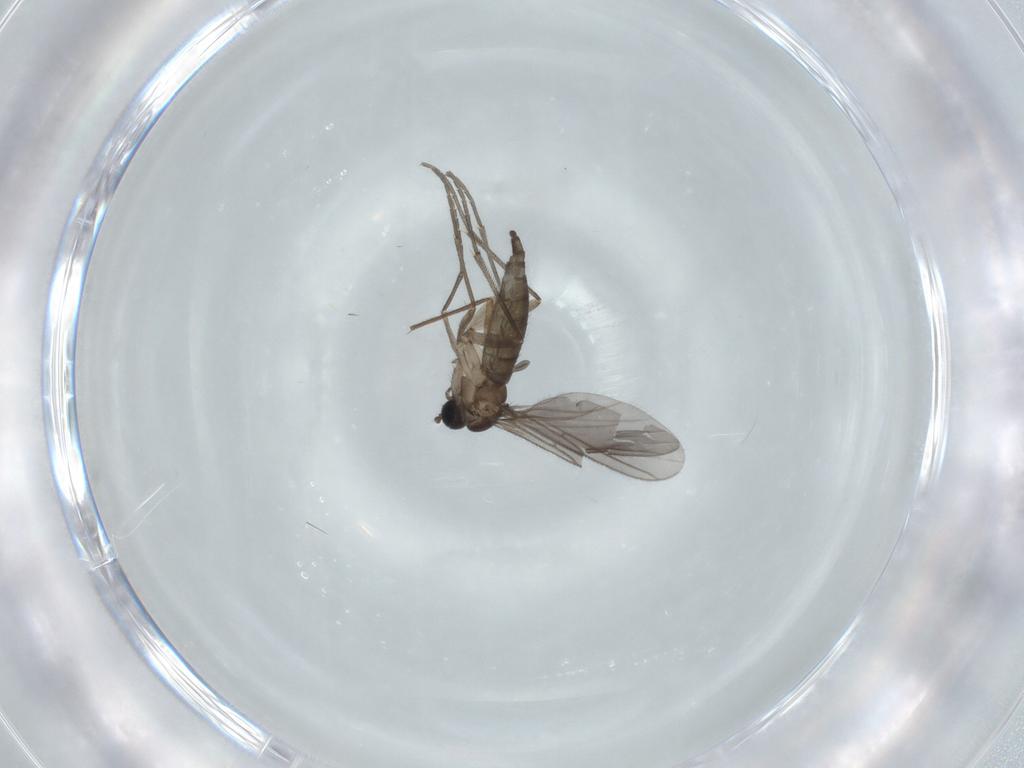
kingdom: Animalia
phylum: Arthropoda
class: Insecta
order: Diptera
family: Sciaridae
